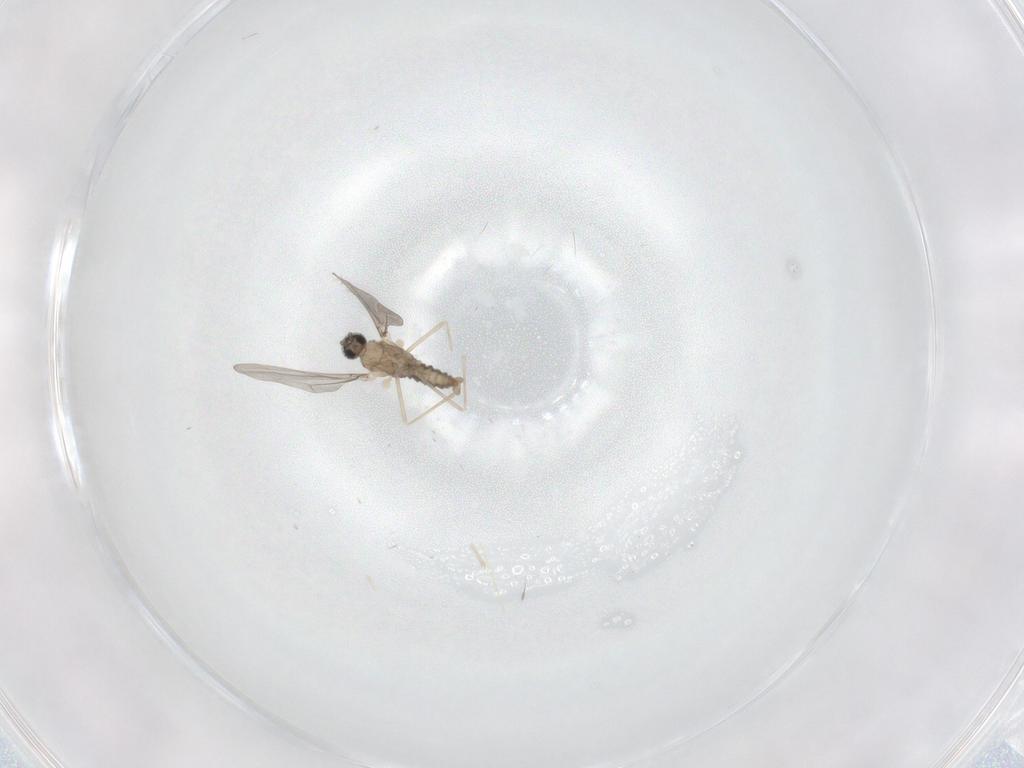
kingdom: Animalia
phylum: Arthropoda
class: Insecta
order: Diptera
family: Cecidomyiidae
